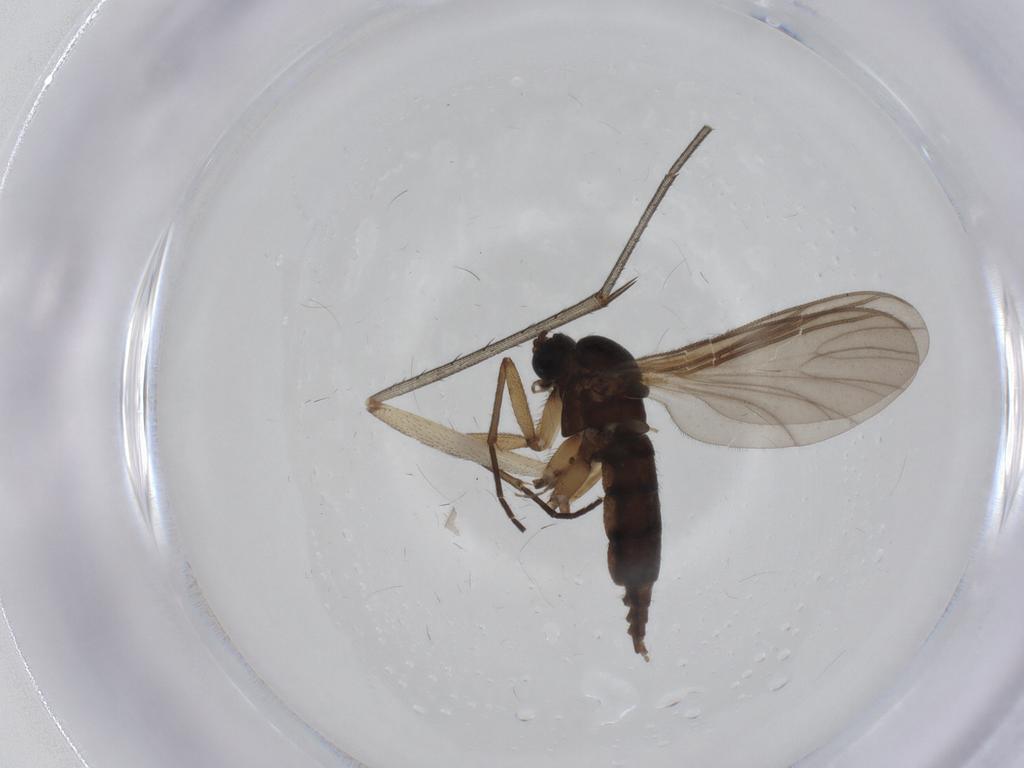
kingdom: Animalia
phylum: Arthropoda
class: Insecta
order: Diptera
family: Sciaridae
